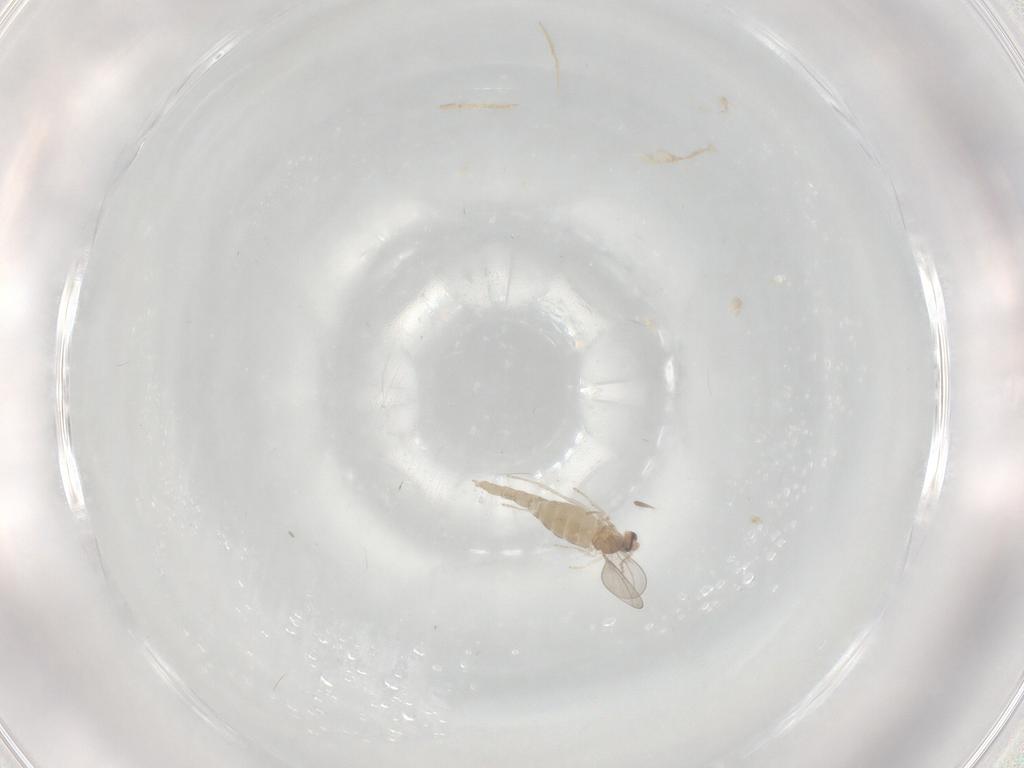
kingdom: Animalia
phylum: Arthropoda
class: Insecta
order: Diptera
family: Cecidomyiidae
